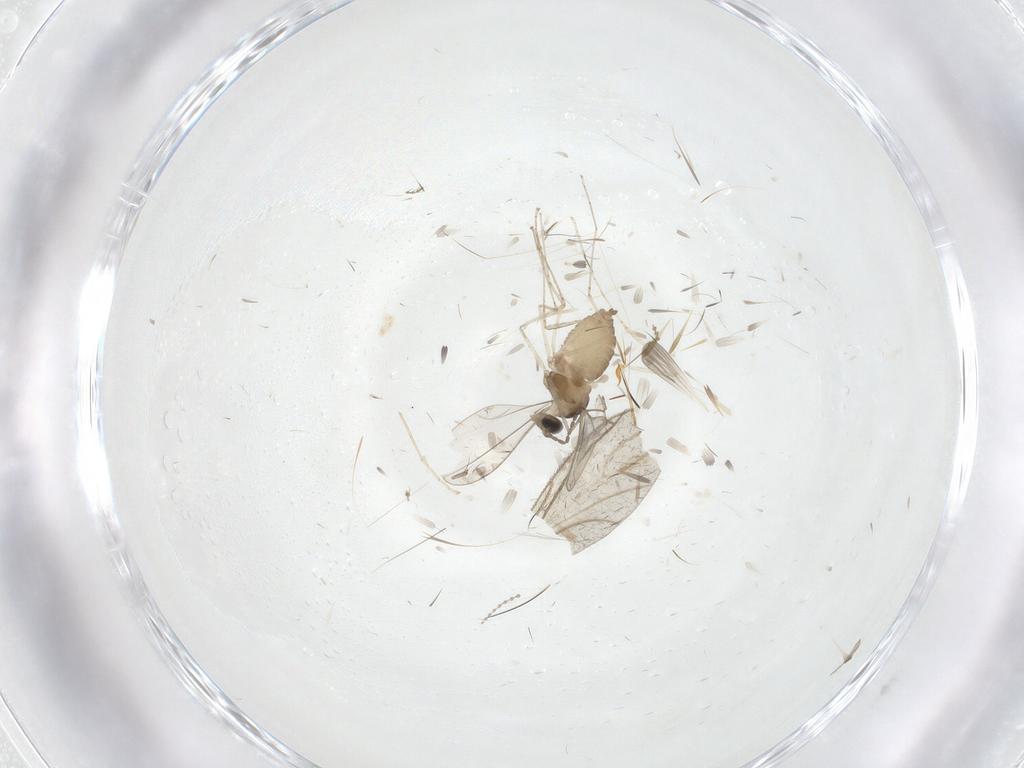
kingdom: Animalia
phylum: Arthropoda
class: Insecta
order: Diptera
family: Cecidomyiidae
